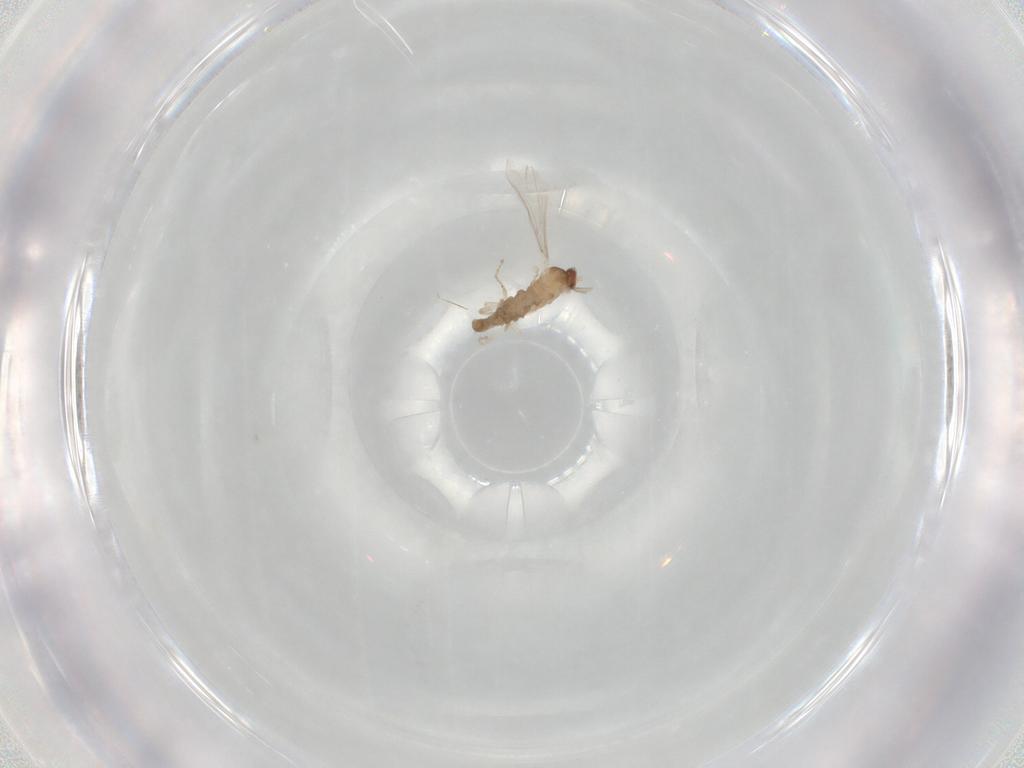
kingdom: Animalia
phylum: Arthropoda
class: Insecta
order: Diptera
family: Cecidomyiidae
